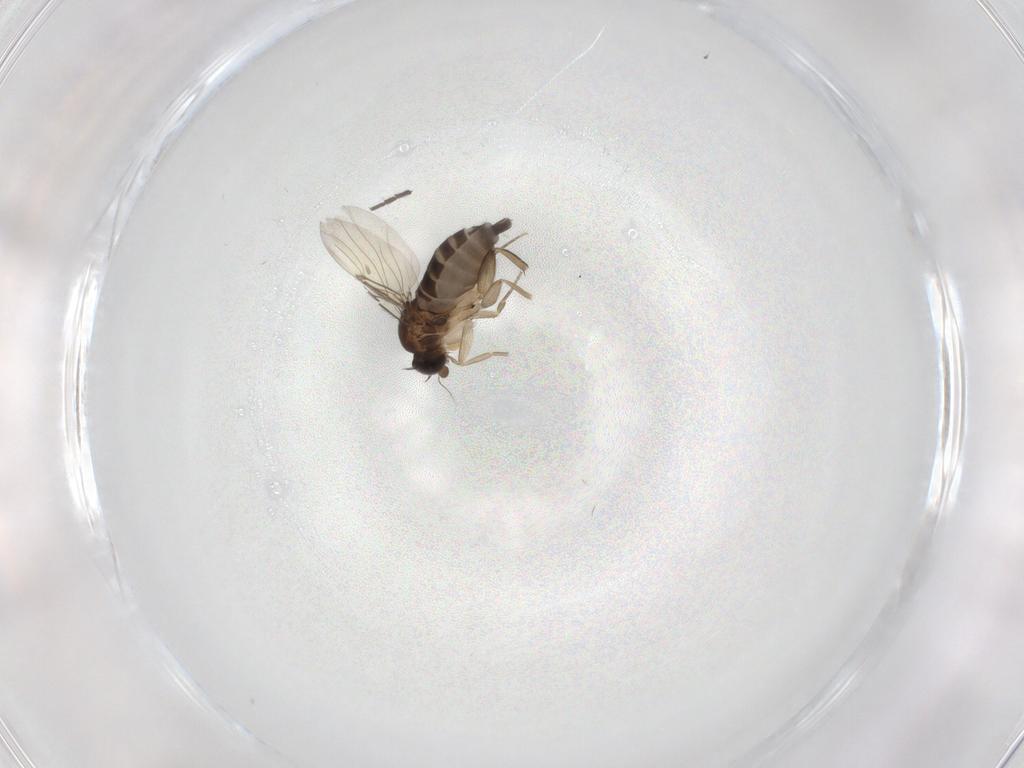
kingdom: Animalia
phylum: Arthropoda
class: Insecta
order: Diptera
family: Phoridae
